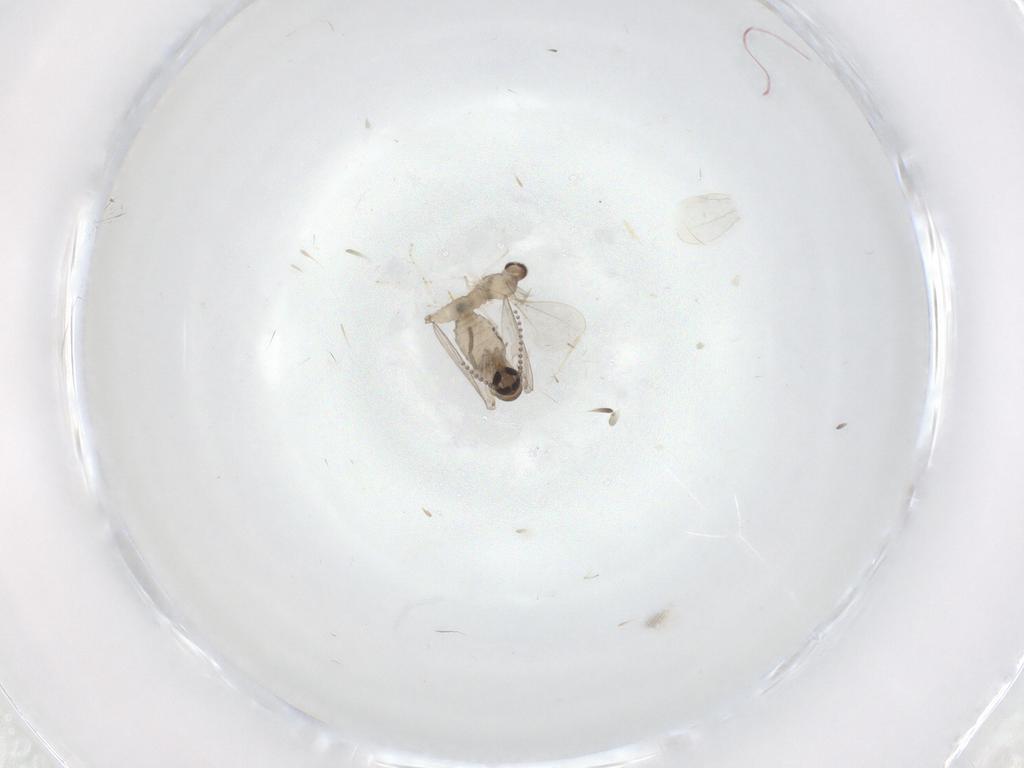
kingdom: Animalia
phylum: Arthropoda
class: Insecta
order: Diptera
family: Psychodidae
